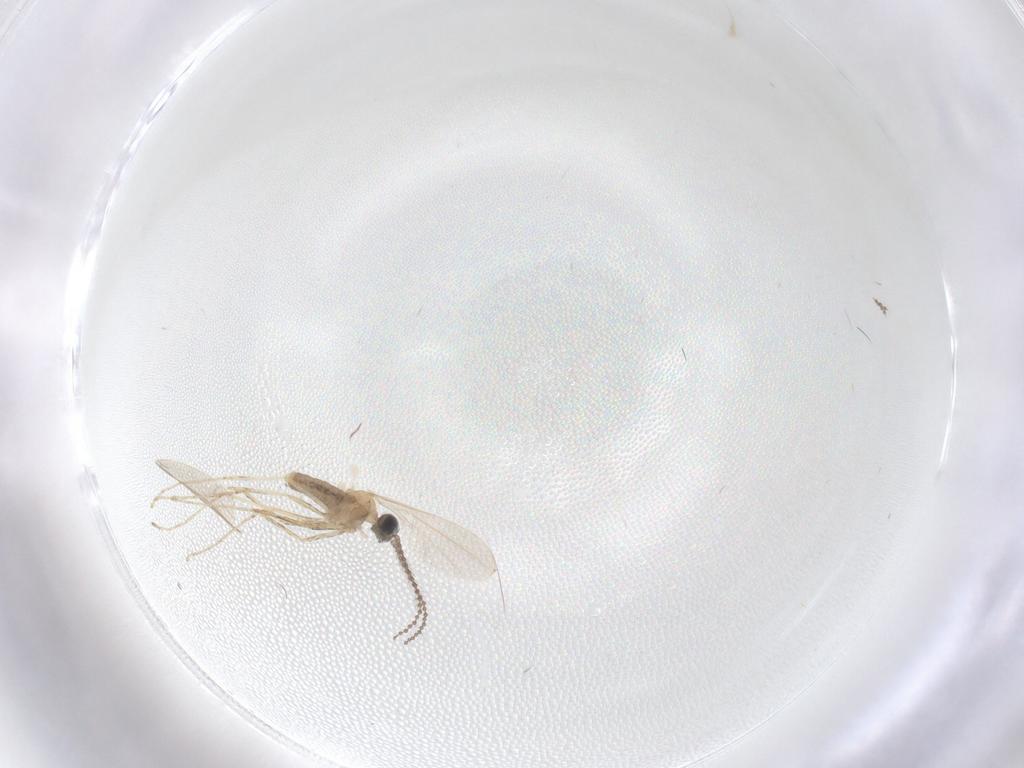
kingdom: Animalia
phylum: Arthropoda
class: Insecta
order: Diptera
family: Cecidomyiidae
